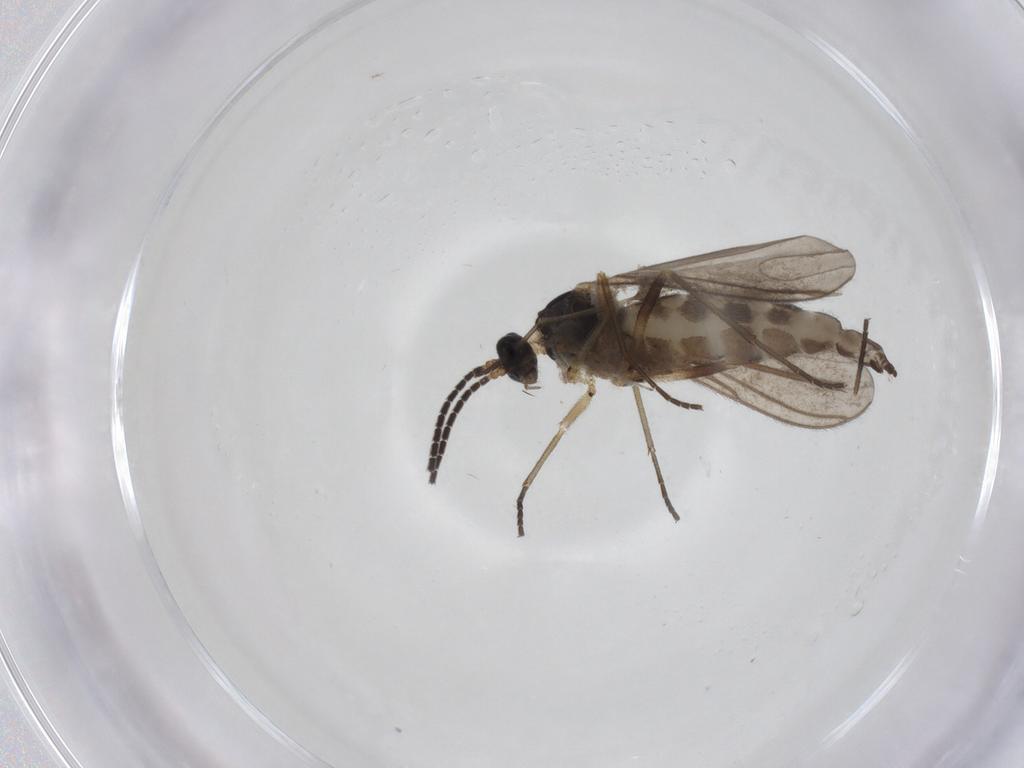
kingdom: Animalia
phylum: Arthropoda
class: Insecta
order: Diptera
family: Sciaridae
